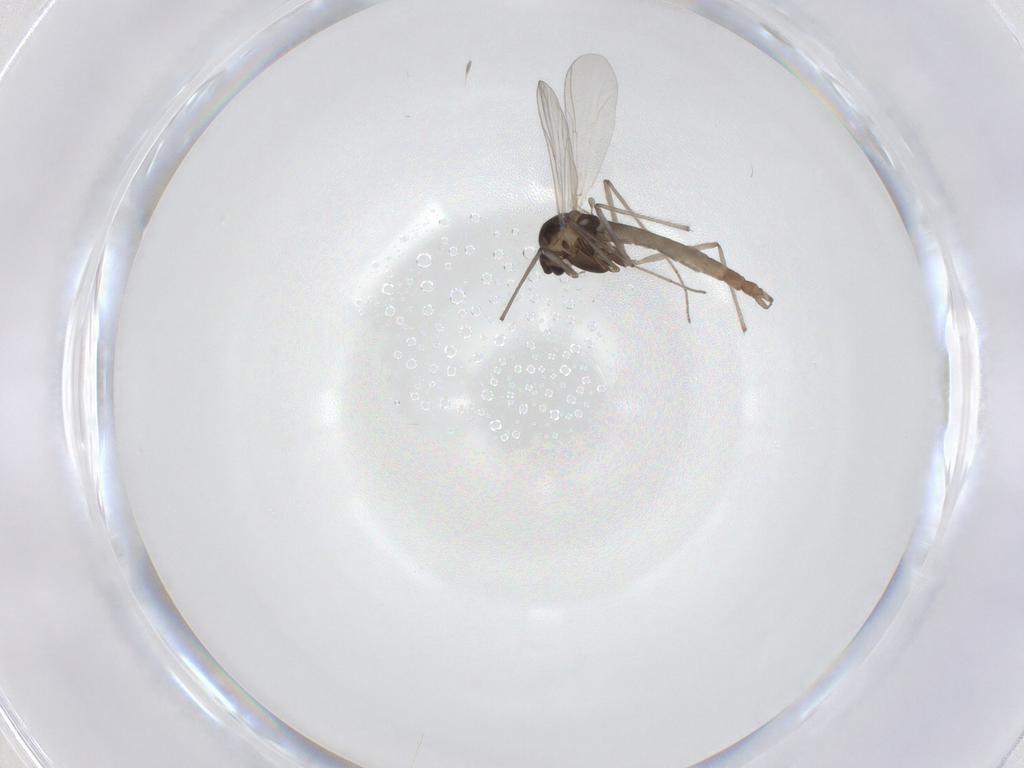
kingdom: Animalia
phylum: Arthropoda
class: Insecta
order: Diptera
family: Chironomidae
